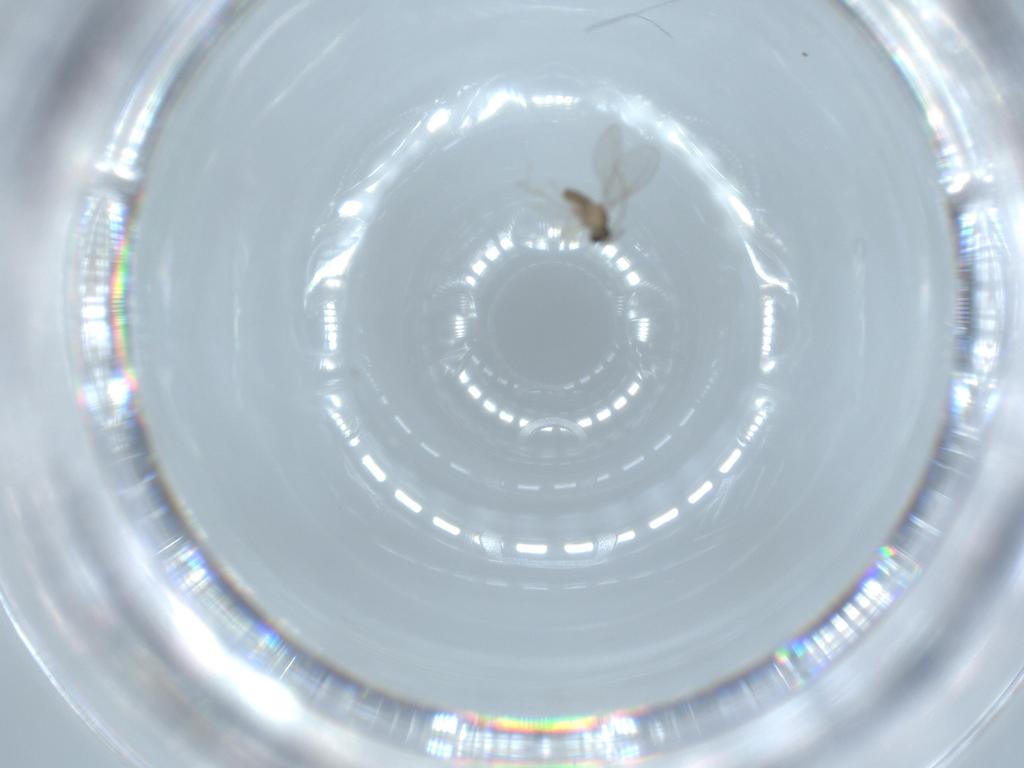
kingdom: Animalia
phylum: Arthropoda
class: Insecta
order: Diptera
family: Cecidomyiidae
